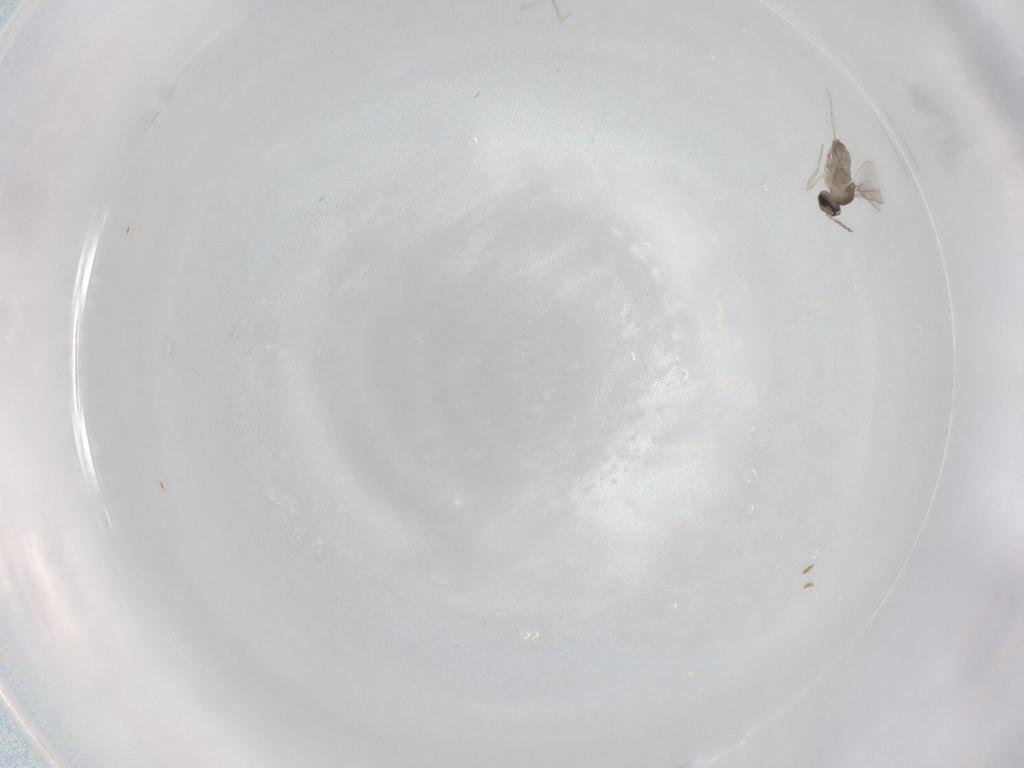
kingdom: Animalia
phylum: Arthropoda
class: Insecta
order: Diptera
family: Cecidomyiidae
